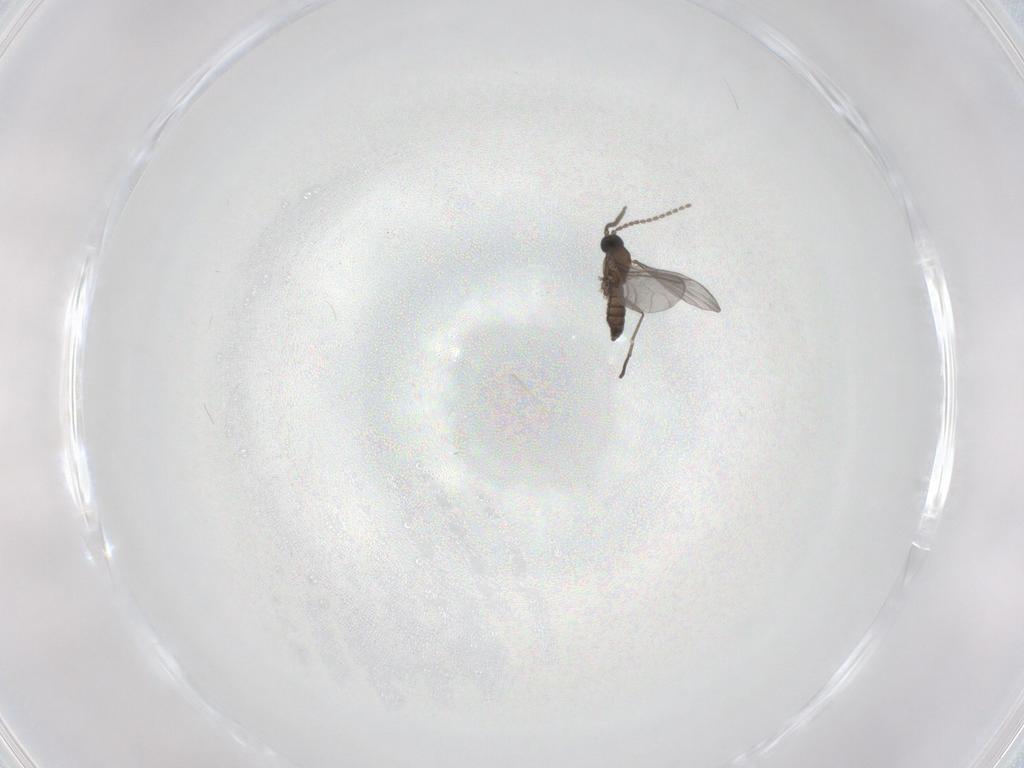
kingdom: Animalia
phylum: Arthropoda
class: Insecta
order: Diptera
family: Sciaridae
